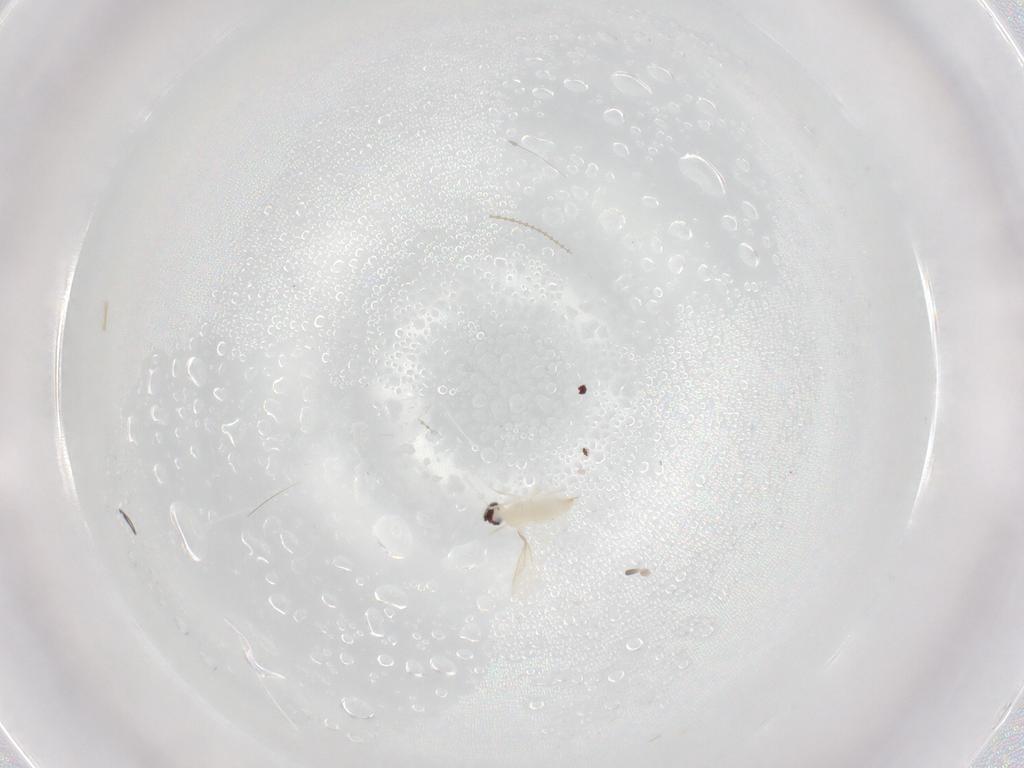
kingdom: Animalia
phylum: Arthropoda
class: Insecta
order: Diptera
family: Cecidomyiidae
